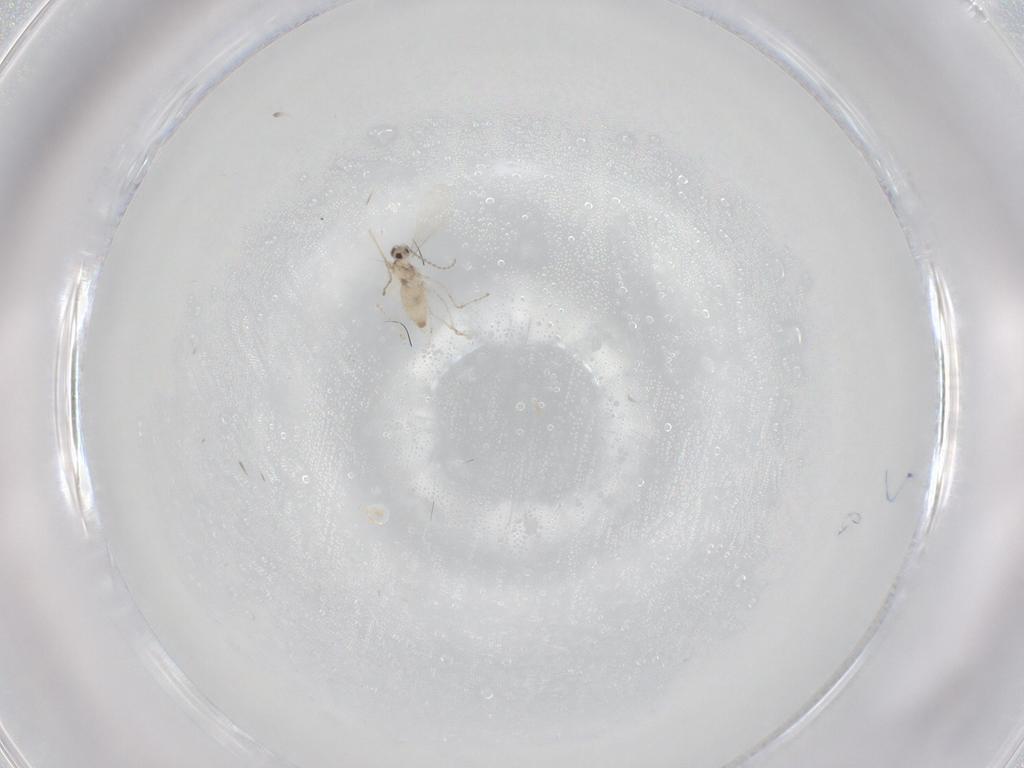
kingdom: Animalia
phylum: Arthropoda
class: Insecta
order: Diptera
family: Cecidomyiidae
